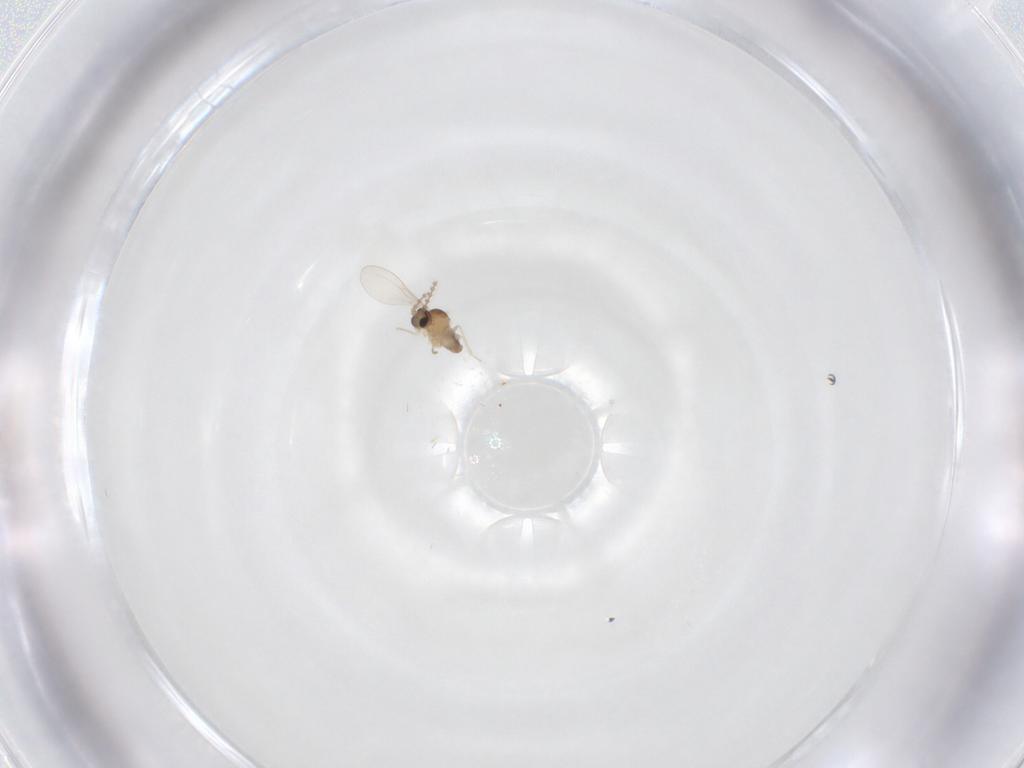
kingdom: Animalia
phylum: Arthropoda
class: Insecta
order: Diptera
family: Cecidomyiidae
